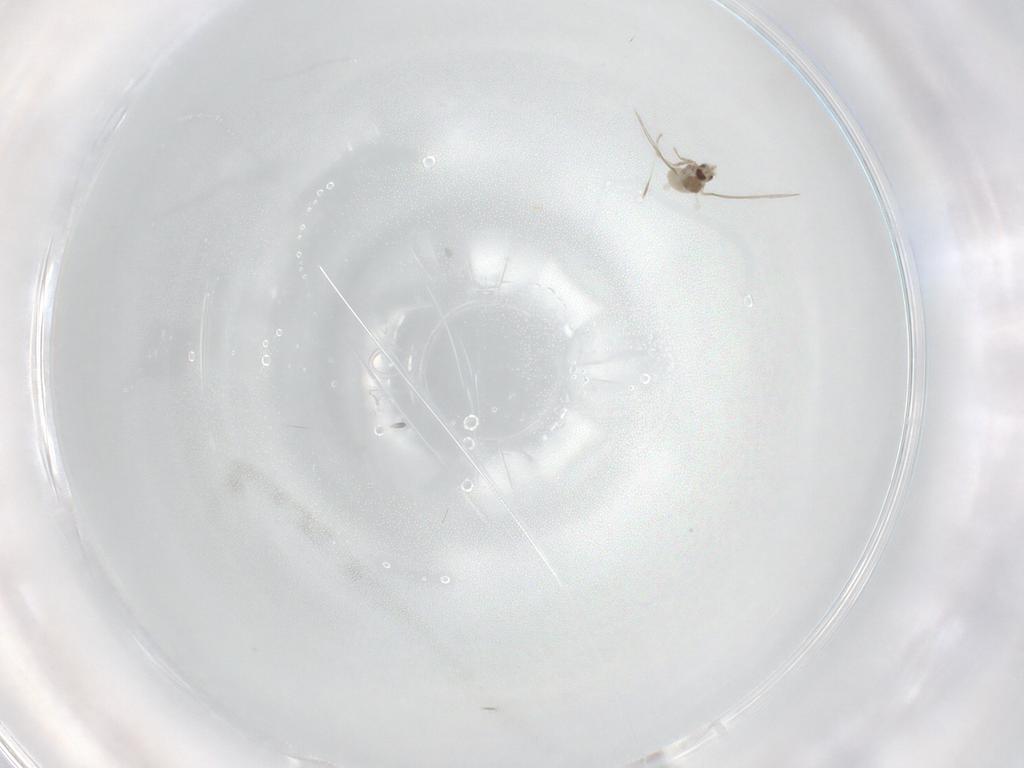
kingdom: Animalia
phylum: Arthropoda
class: Insecta
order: Diptera
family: Cecidomyiidae
